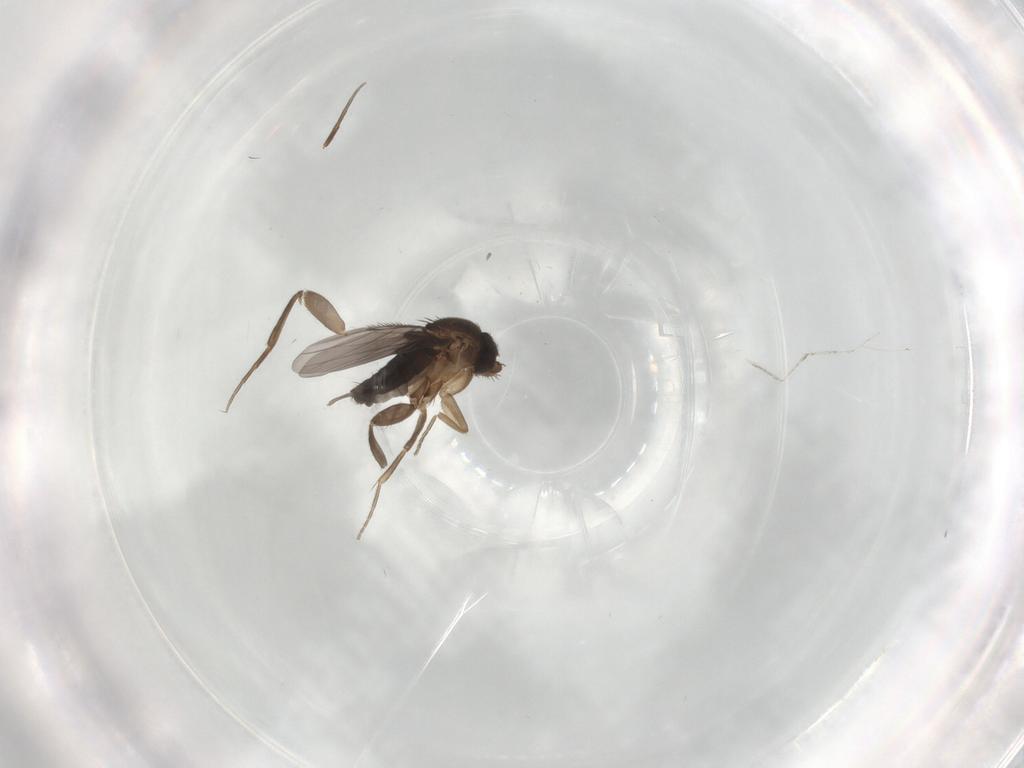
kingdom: Animalia
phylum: Arthropoda
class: Insecta
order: Diptera
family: Phoridae
